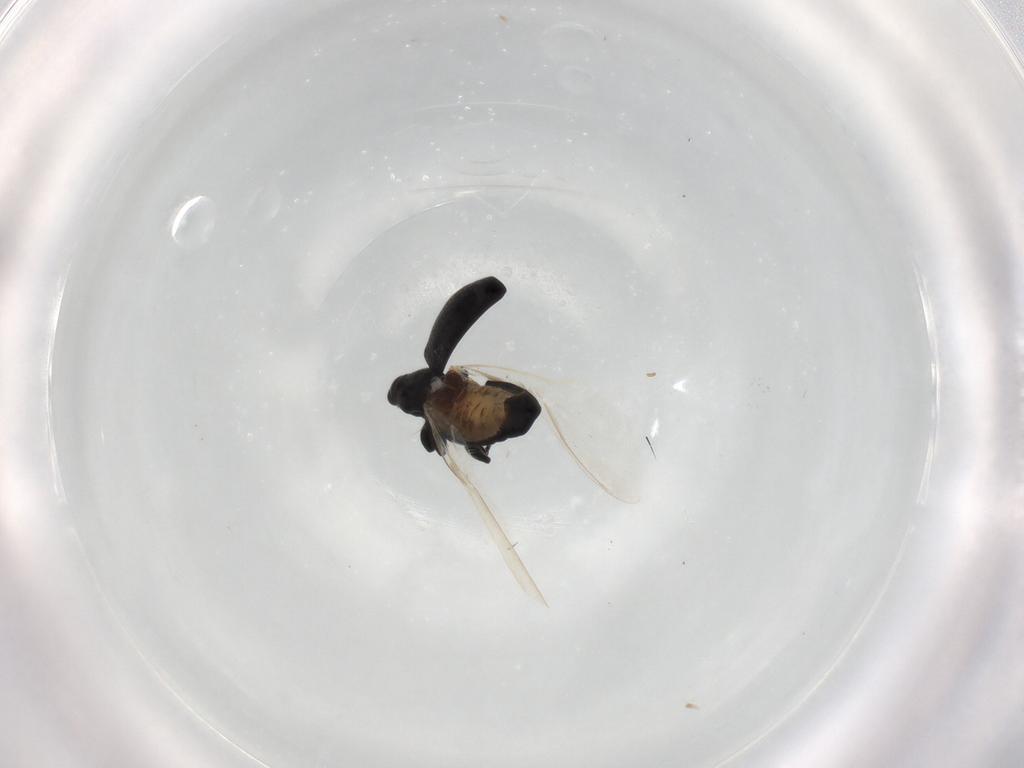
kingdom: Animalia
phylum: Arthropoda
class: Insecta
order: Coleoptera
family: Curculionidae
